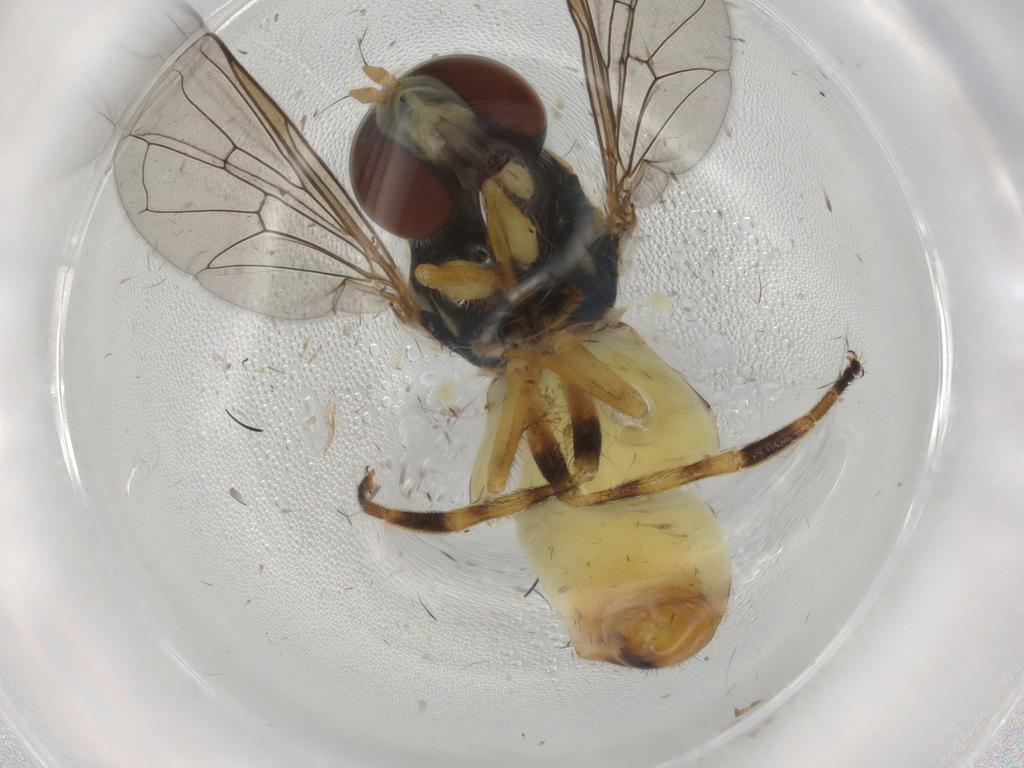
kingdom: Animalia
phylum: Arthropoda
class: Insecta
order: Diptera
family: Syrphidae
